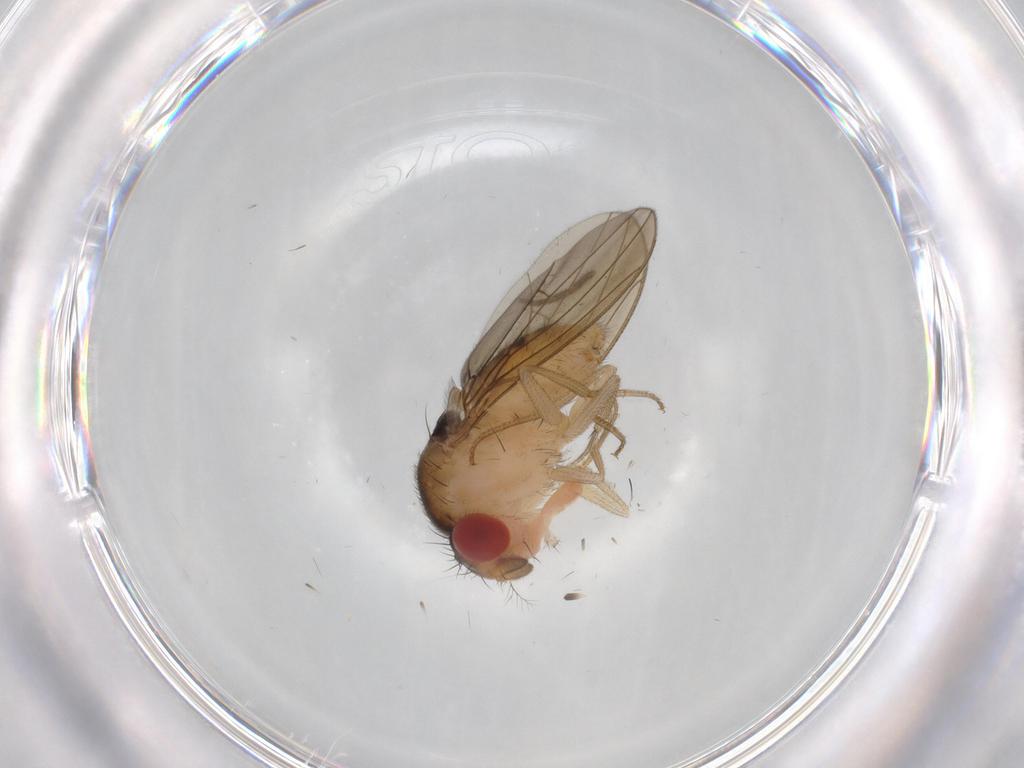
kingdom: Animalia
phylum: Arthropoda
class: Insecta
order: Diptera
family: Drosophilidae
